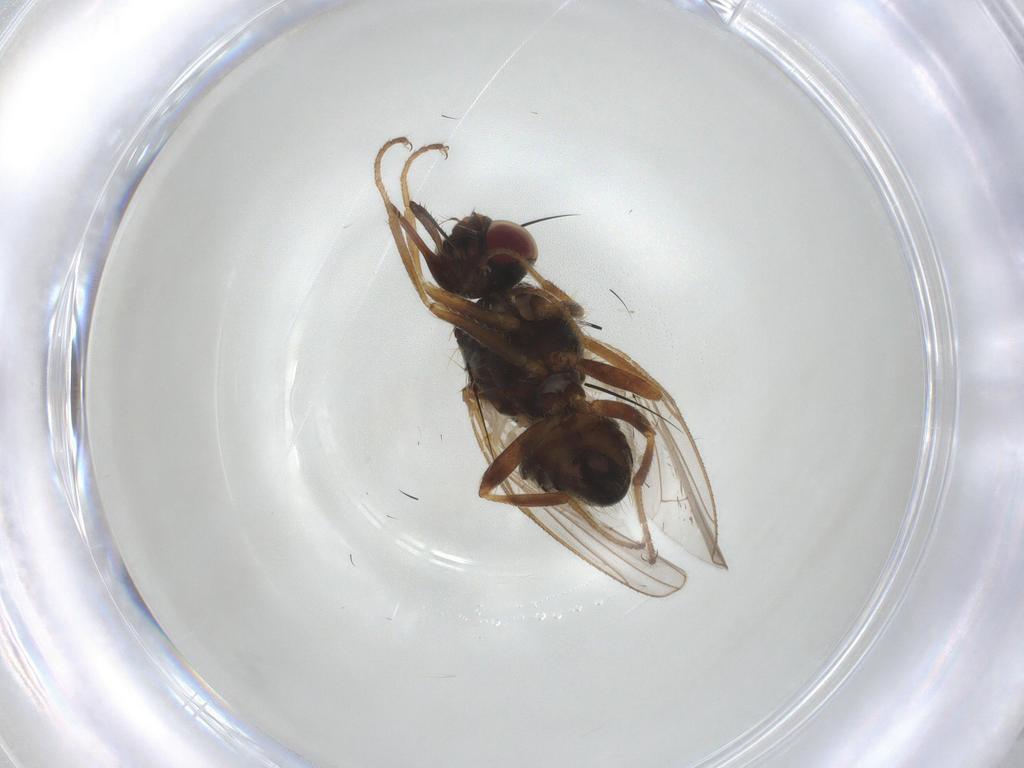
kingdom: Animalia
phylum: Arthropoda
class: Insecta
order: Diptera
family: Muscidae
